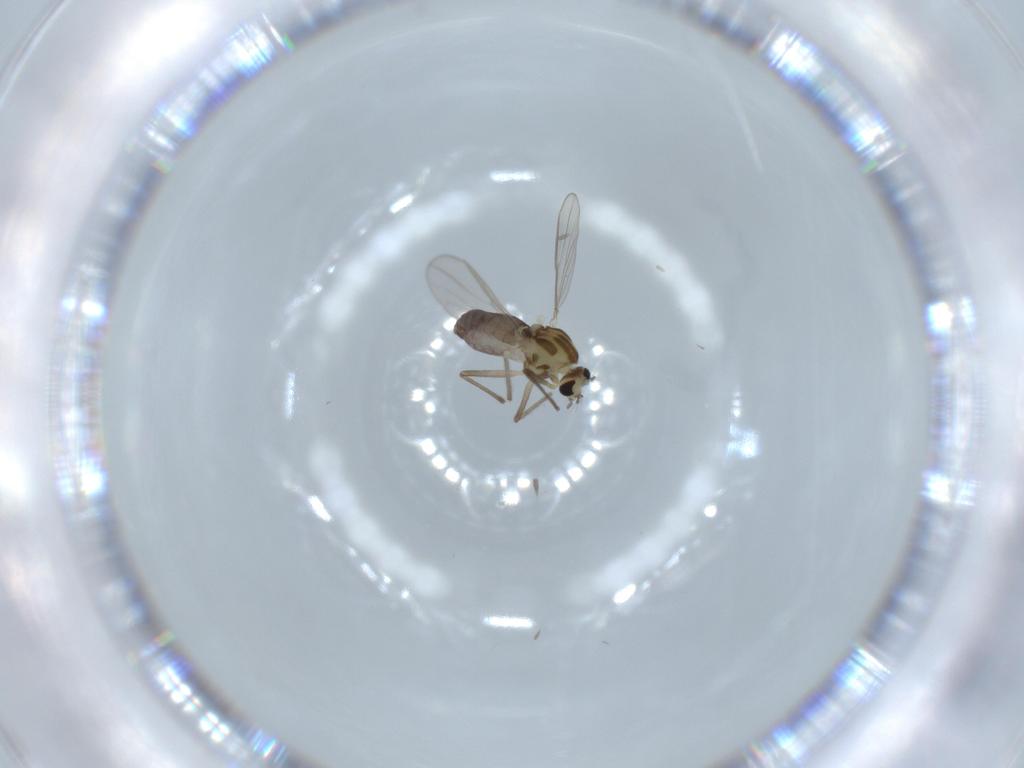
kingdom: Animalia
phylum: Arthropoda
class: Insecta
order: Diptera
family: Chironomidae
